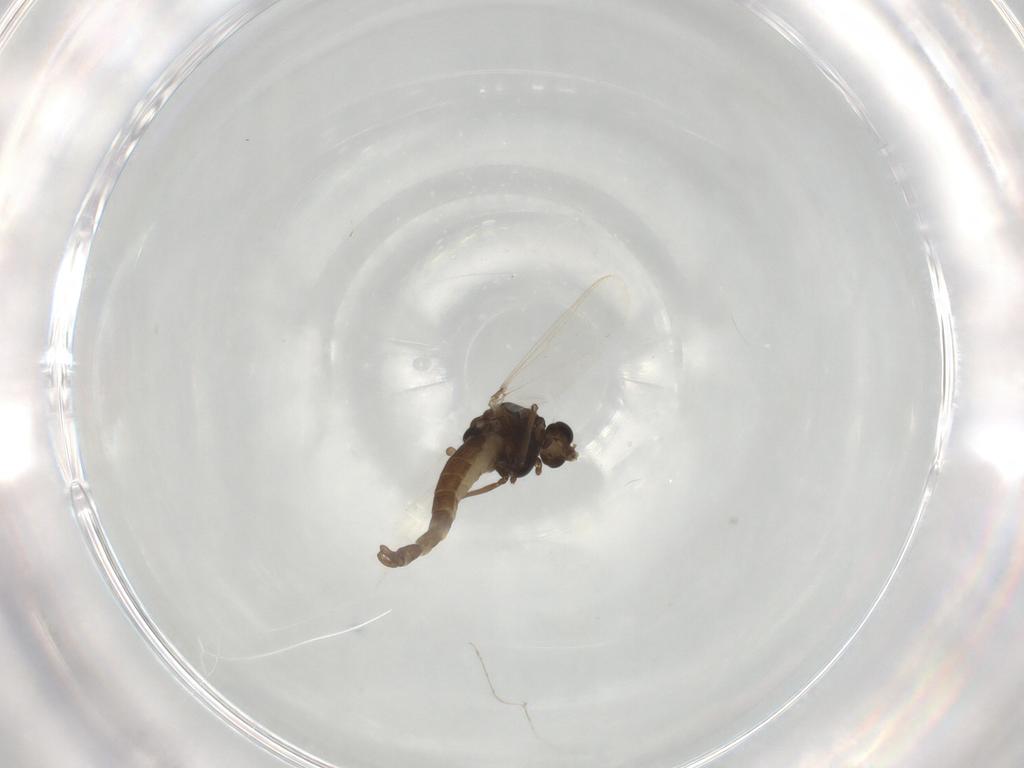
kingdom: Animalia
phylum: Arthropoda
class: Insecta
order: Diptera
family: Chironomidae
